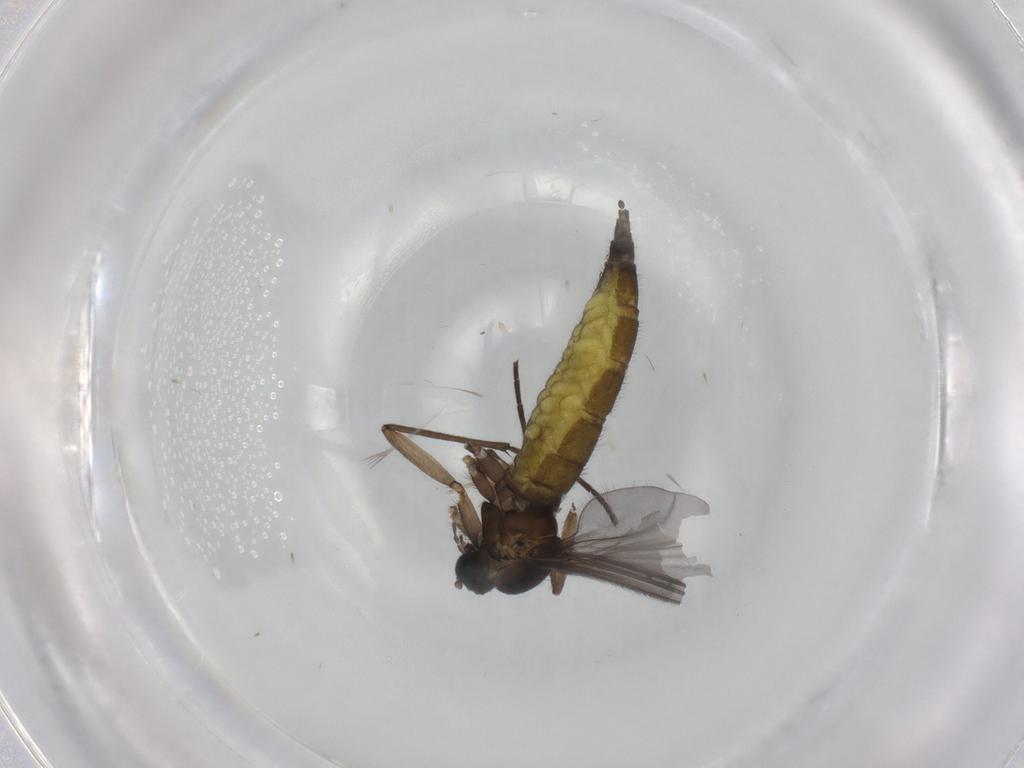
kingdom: Animalia
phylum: Arthropoda
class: Insecta
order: Diptera
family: Sciaridae
